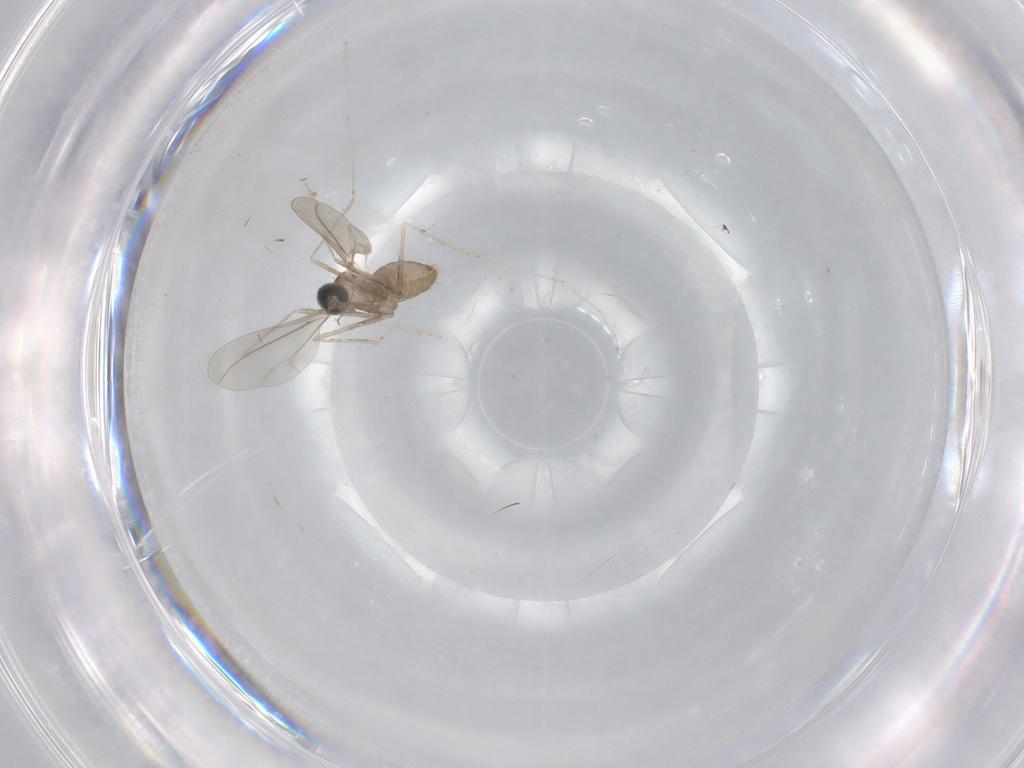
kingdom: Animalia
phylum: Arthropoda
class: Insecta
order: Diptera
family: Cecidomyiidae
